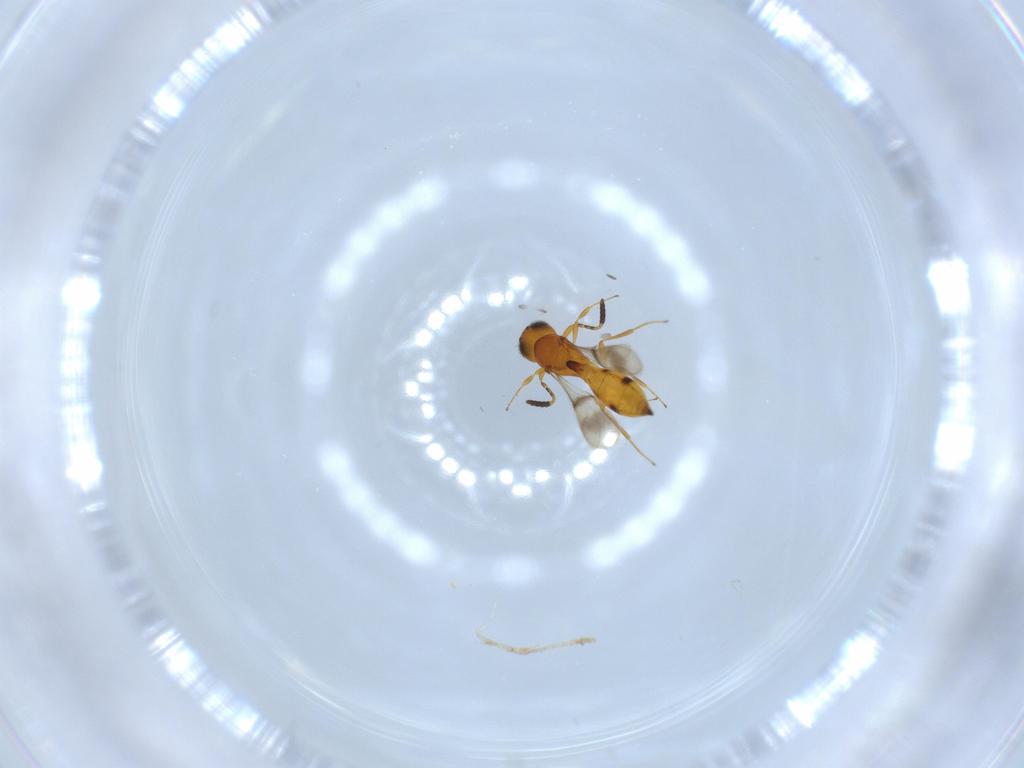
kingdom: Animalia
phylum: Arthropoda
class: Insecta
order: Hymenoptera
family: Scelionidae
